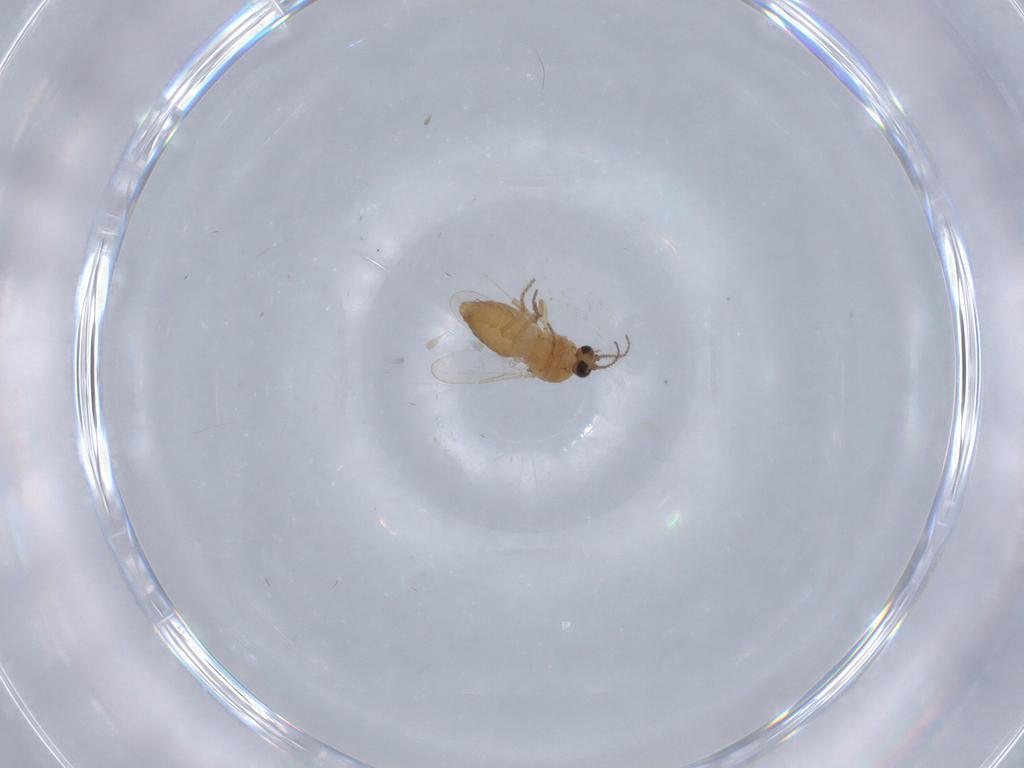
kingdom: Animalia
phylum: Arthropoda
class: Insecta
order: Diptera
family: Ceratopogonidae
